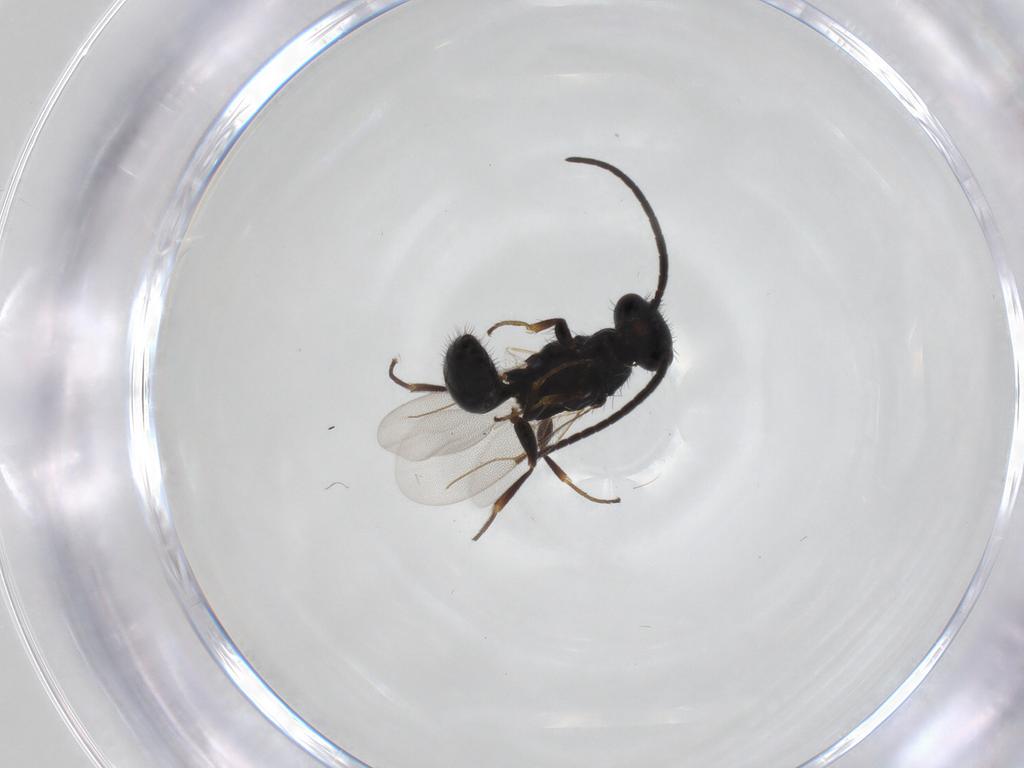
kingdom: Animalia
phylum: Arthropoda
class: Insecta
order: Hymenoptera
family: Bethylidae
